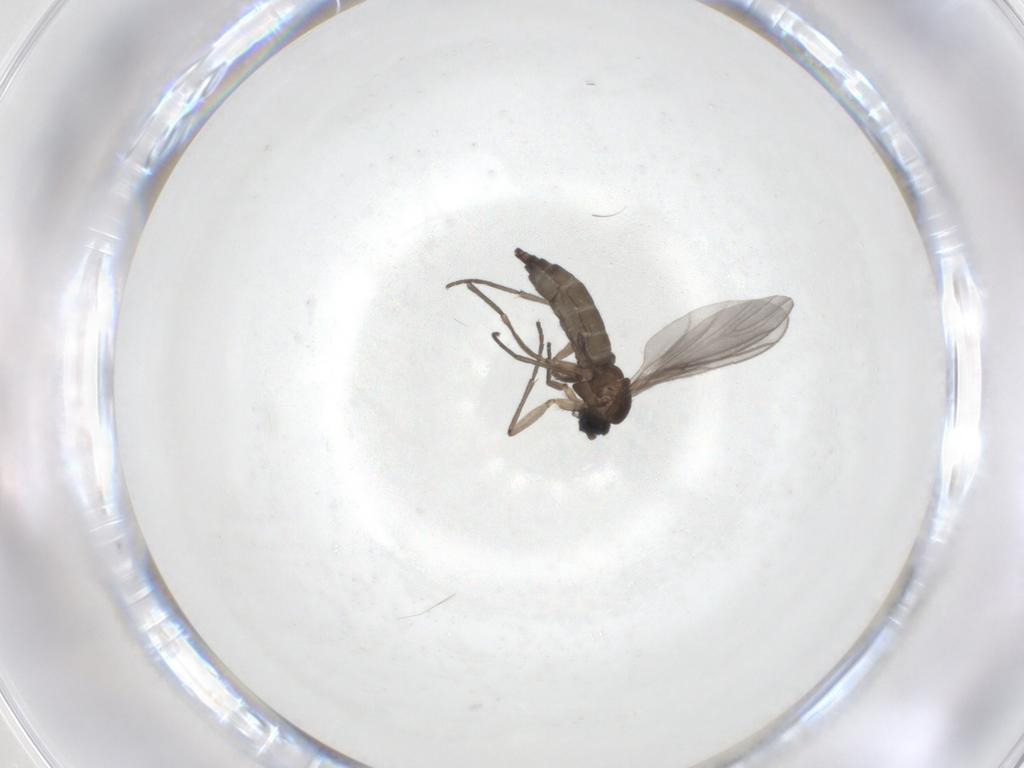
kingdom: Animalia
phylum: Arthropoda
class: Insecta
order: Diptera
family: Sciaridae
